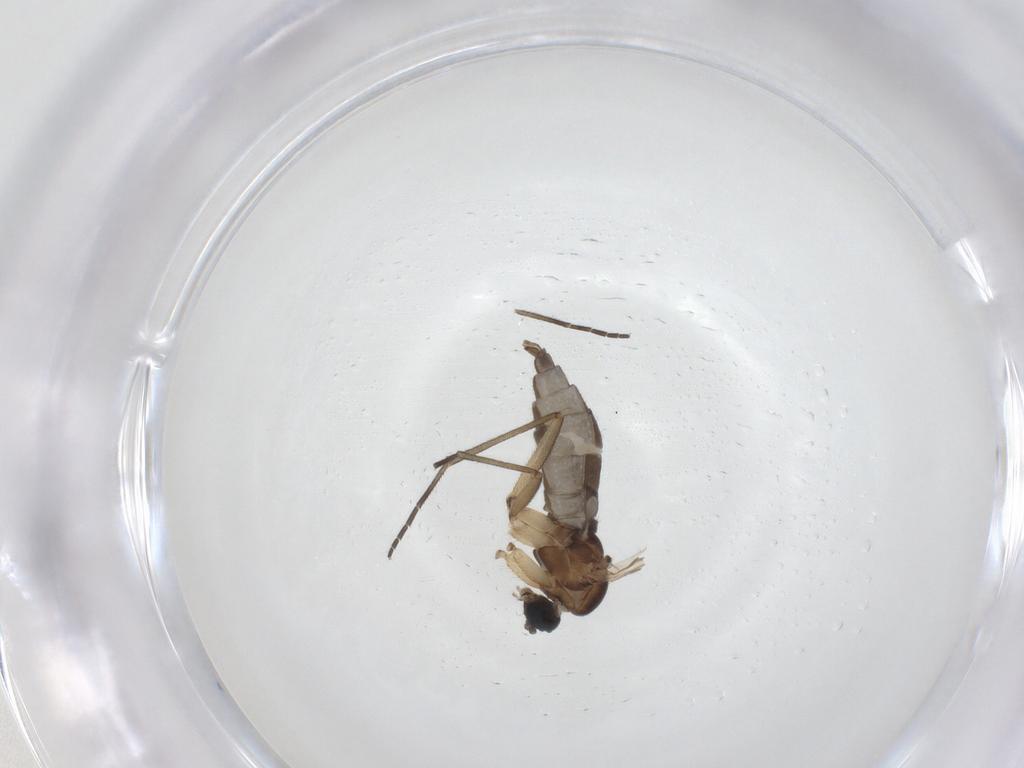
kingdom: Animalia
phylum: Arthropoda
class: Insecta
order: Diptera
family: Sciaridae
